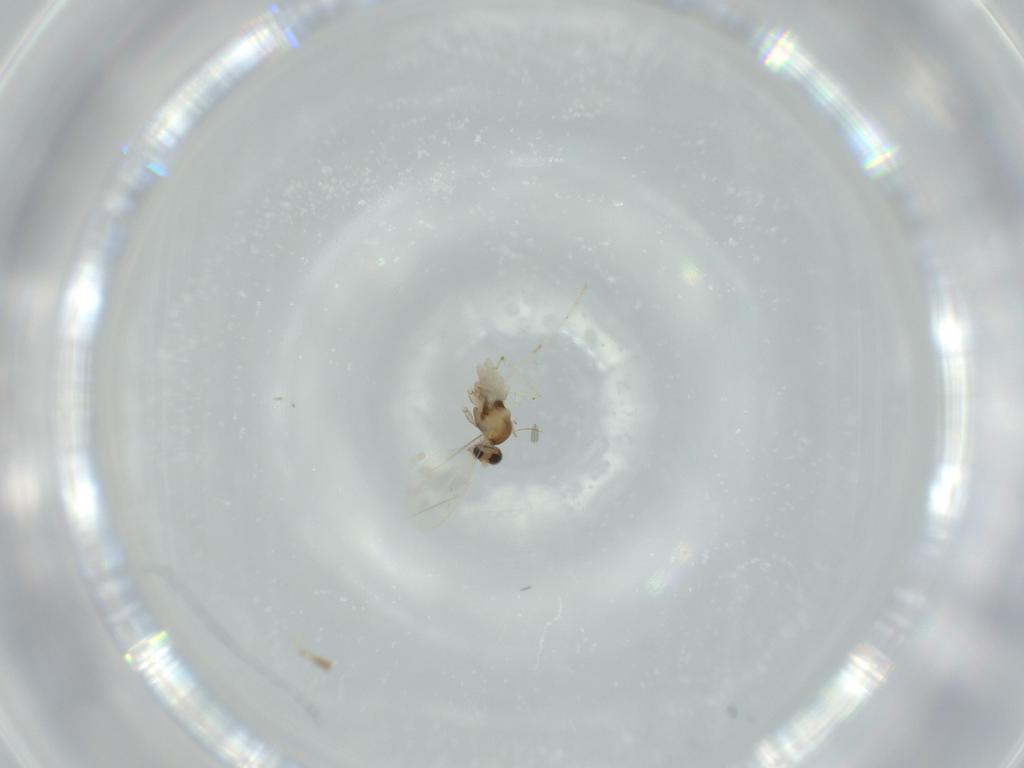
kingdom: Animalia
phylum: Arthropoda
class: Insecta
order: Diptera
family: Cecidomyiidae
